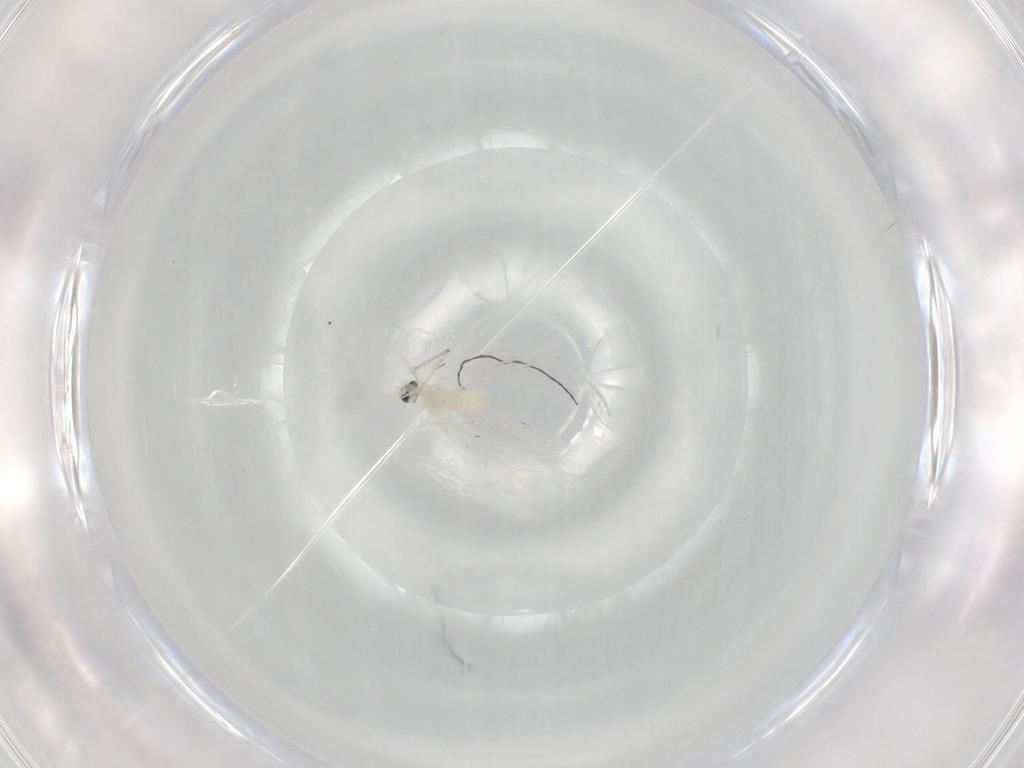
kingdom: Animalia
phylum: Arthropoda
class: Insecta
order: Diptera
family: Cecidomyiidae
